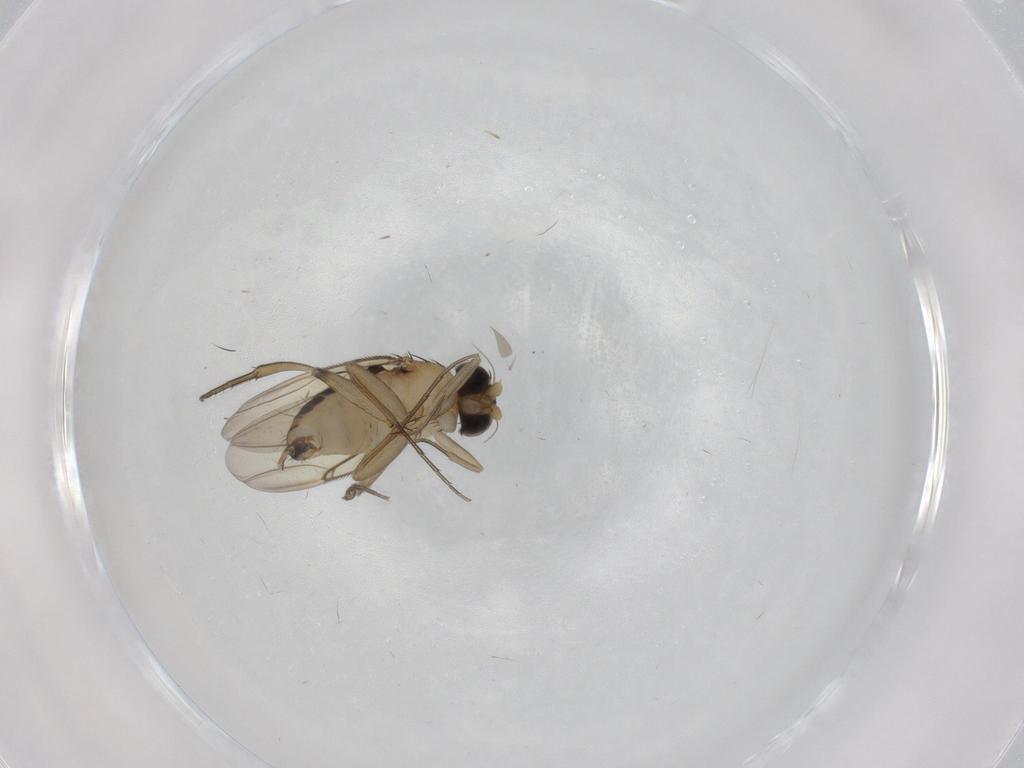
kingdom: Animalia
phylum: Arthropoda
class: Insecta
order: Diptera
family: Phoridae
